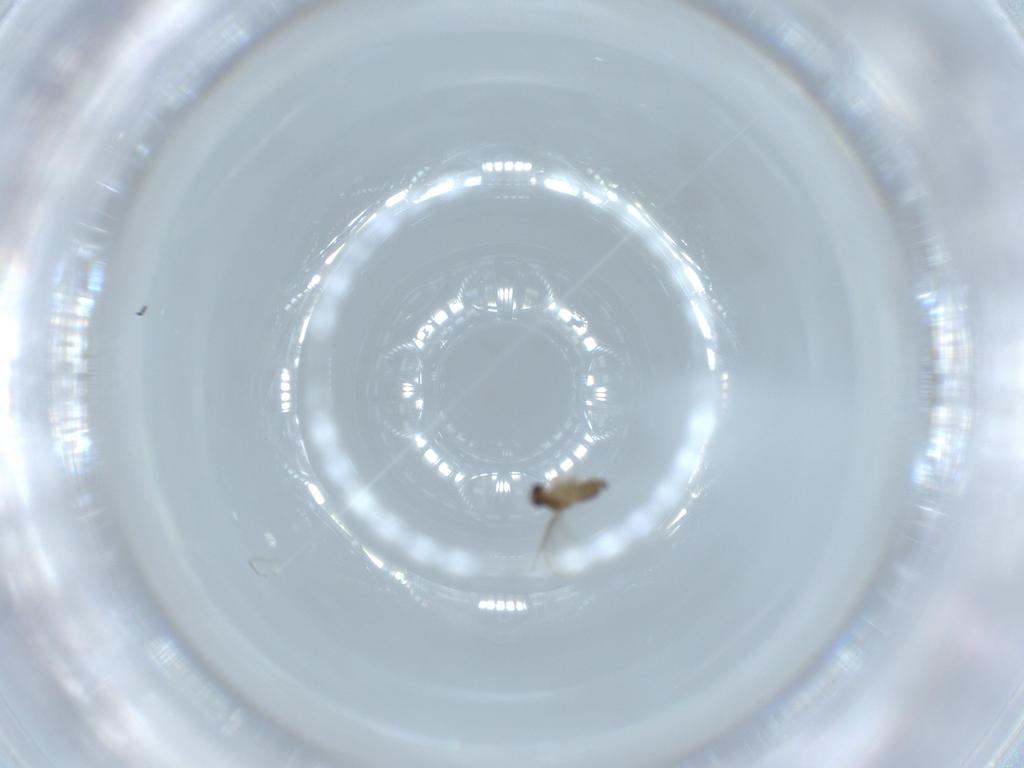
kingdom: Animalia
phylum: Arthropoda
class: Insecta
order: Diptera
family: Cecidomyiidae
